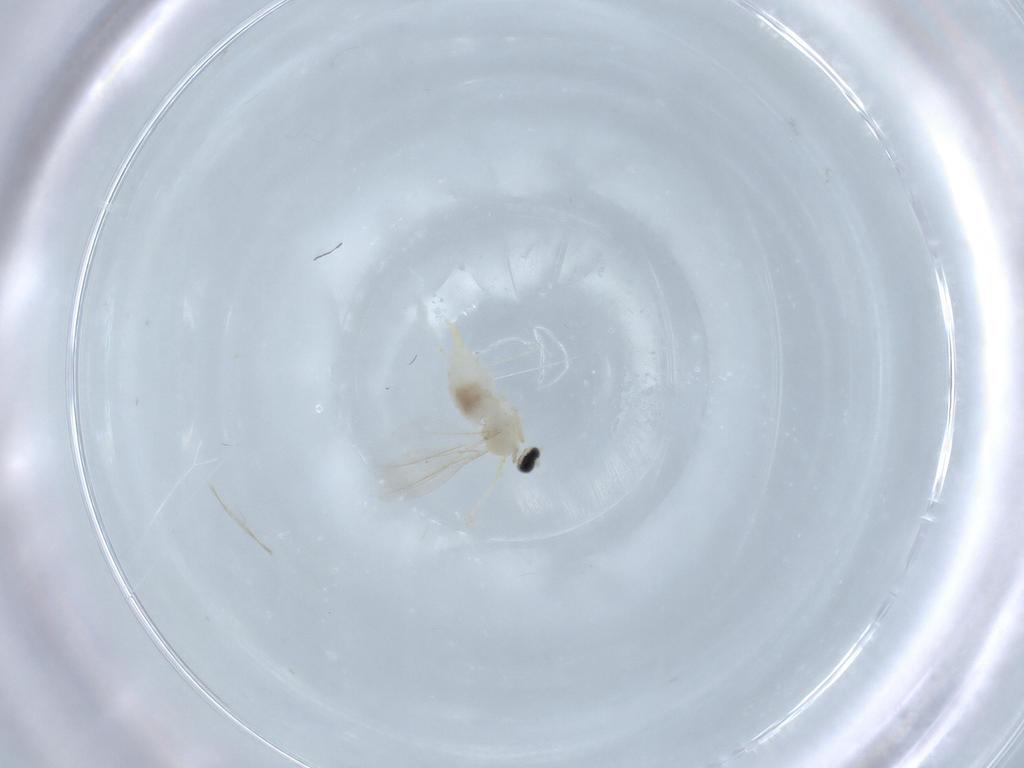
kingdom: Animalia
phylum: Arthropoda
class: Insecta
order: Diptera
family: Cecidomyiidae
